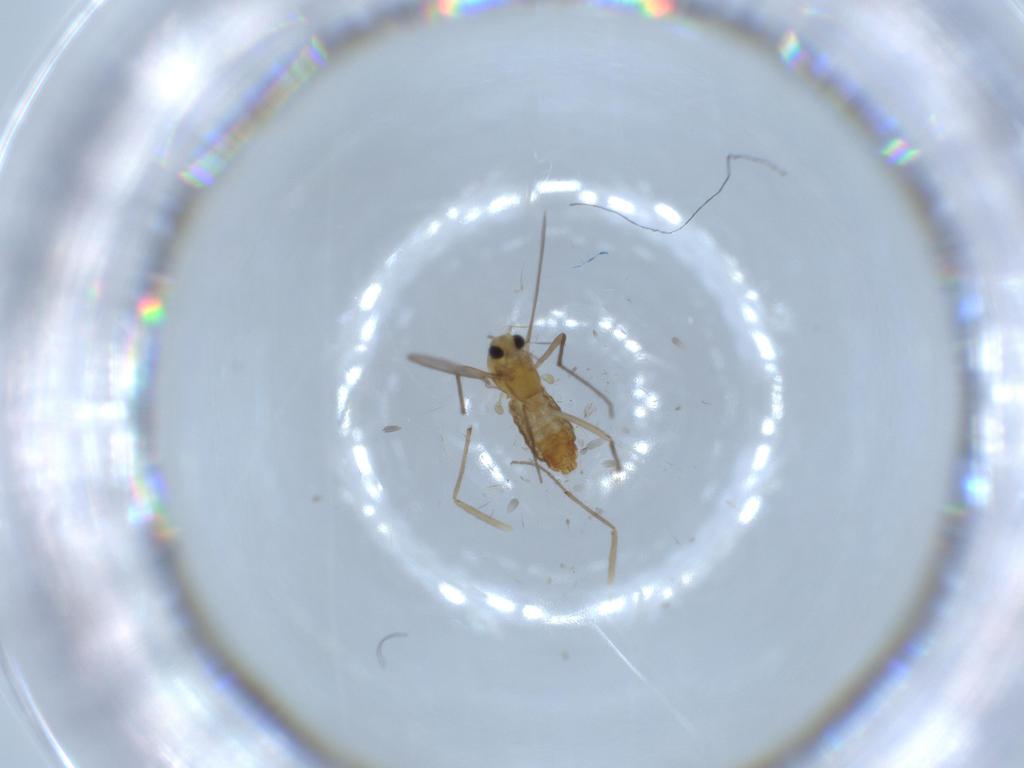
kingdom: Animalia
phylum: Arthropoda
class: Insecta
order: Diptera
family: Chironomidae
